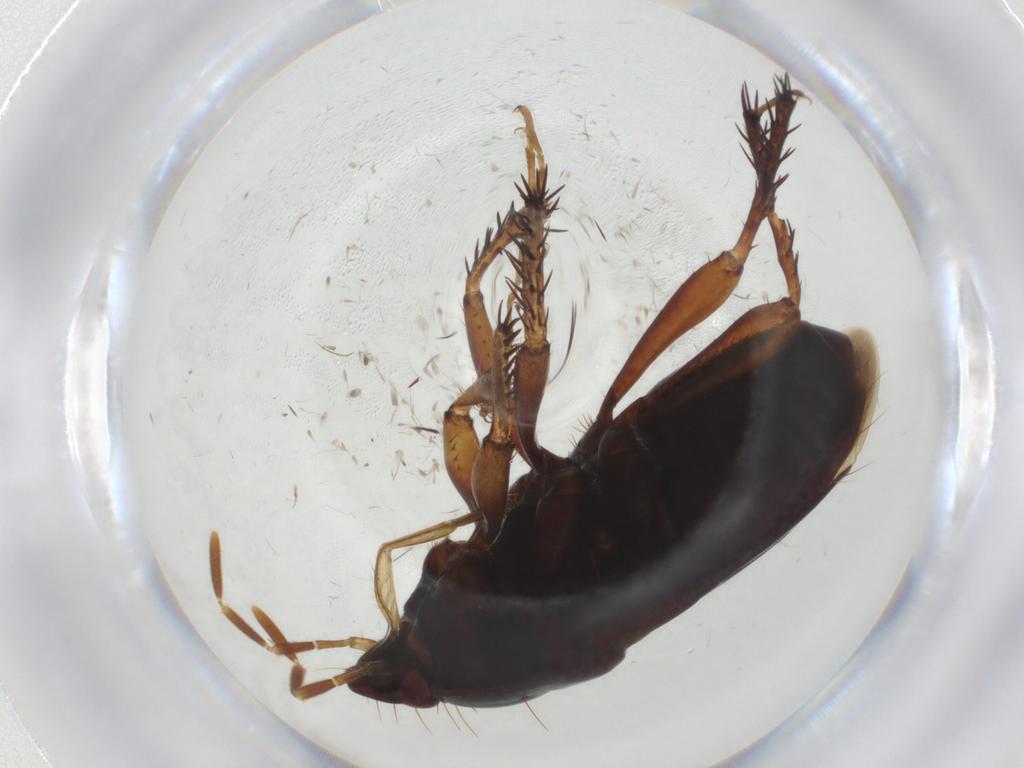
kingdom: Animalia
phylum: Arthropoda
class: Insecta
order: Hemiptera
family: Cydnidae
